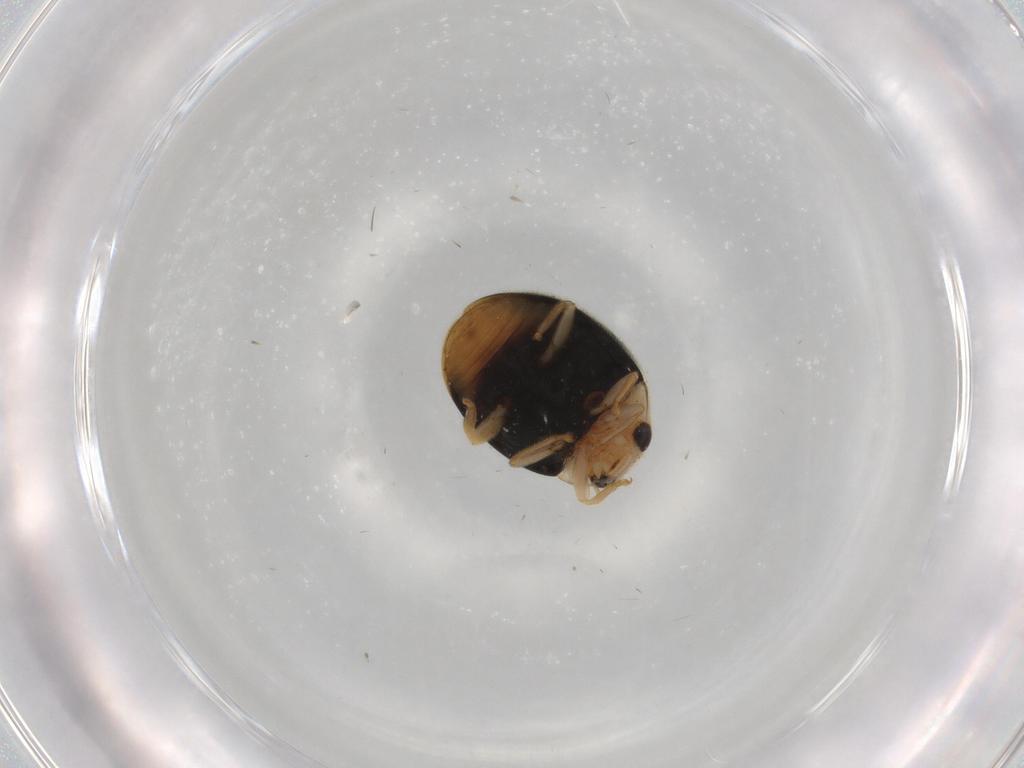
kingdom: Animalia
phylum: Arthropoda
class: Insecta
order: Coleoptera
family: Coccinellidae
